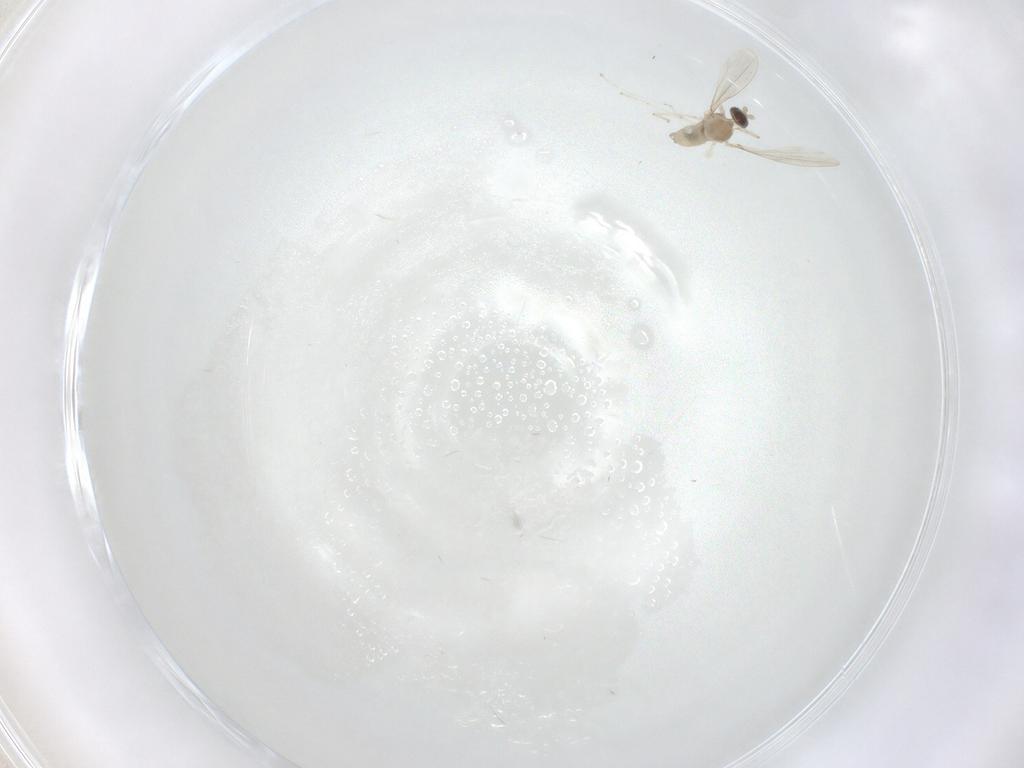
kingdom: Animalia
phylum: Arthropoda
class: Insecta
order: Diptera
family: Cecidomyiidae
